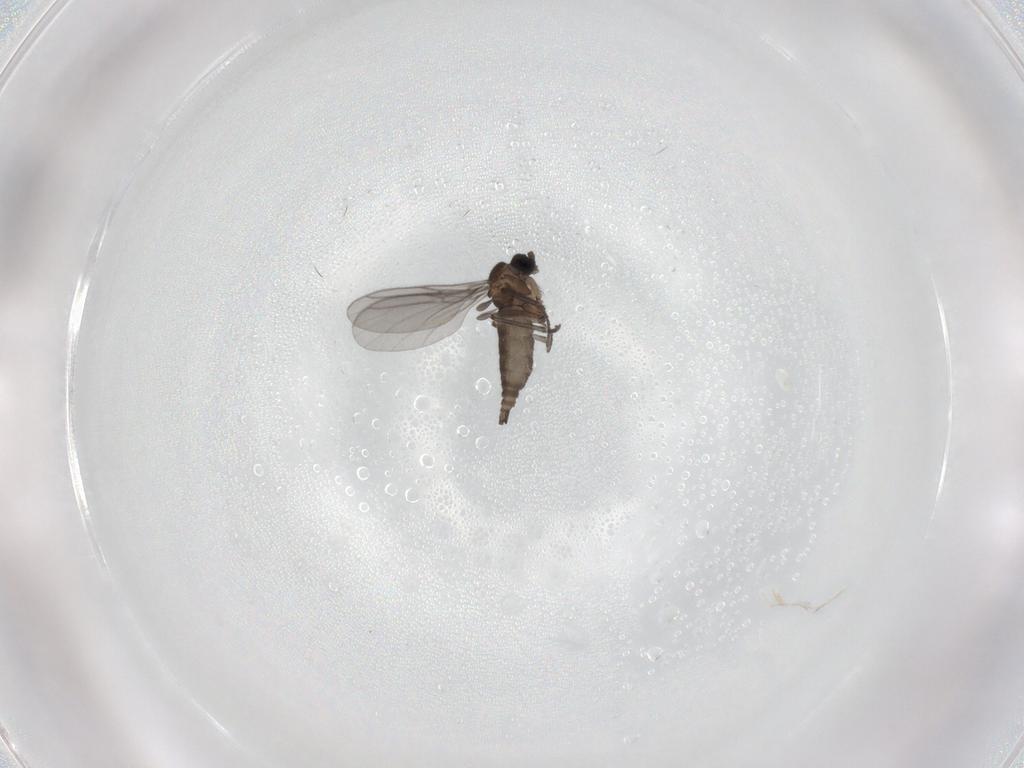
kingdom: Animalia
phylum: Arthropoda
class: Insecta
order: Diptera
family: Sciaridae
